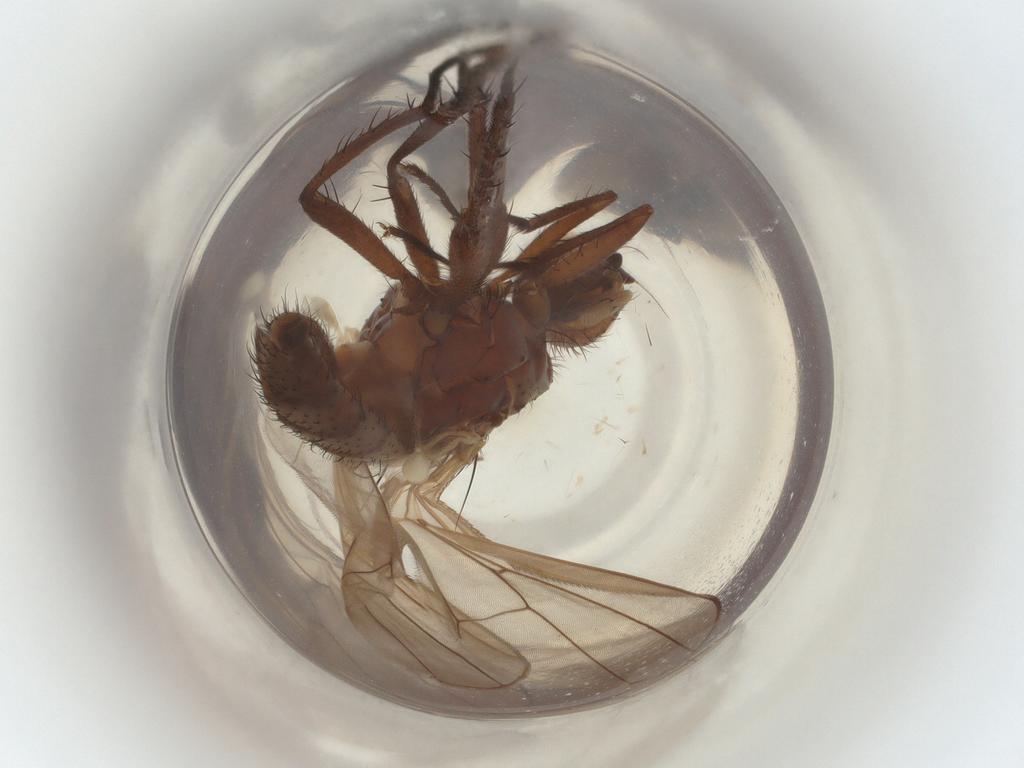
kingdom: Animalia
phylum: Arthropoda
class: Insecta
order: Diptera
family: Anthomyiidae
